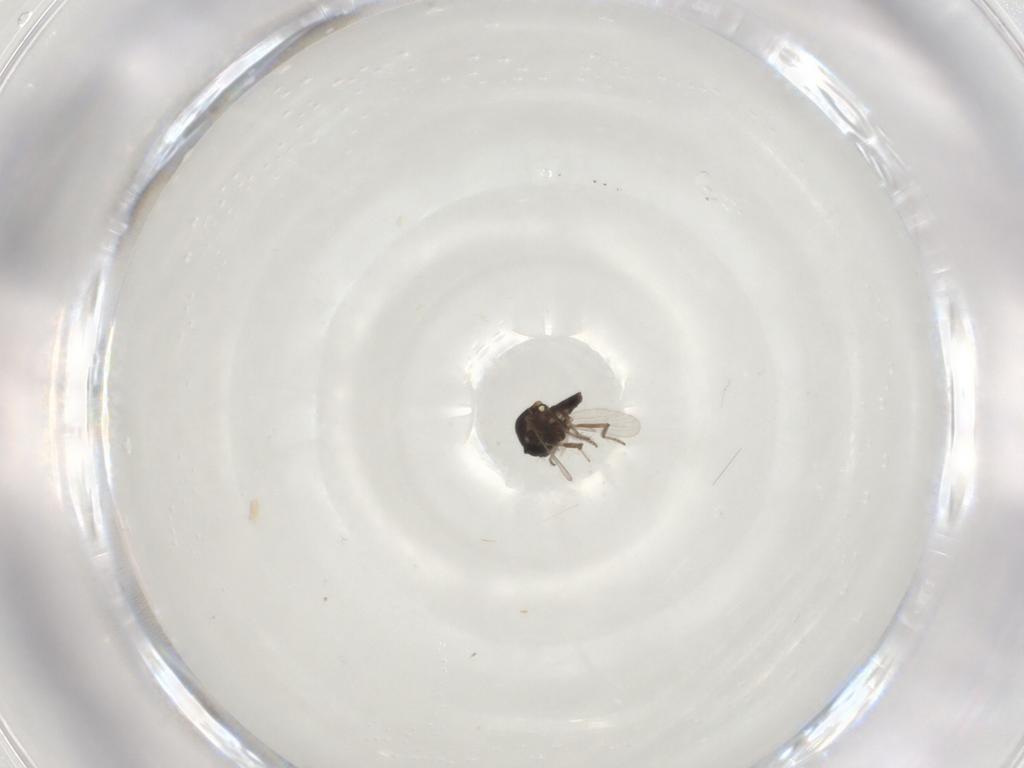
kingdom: Animalia
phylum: Arthropoda
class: Insecta
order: Diptera
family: Ceratopogonidae
